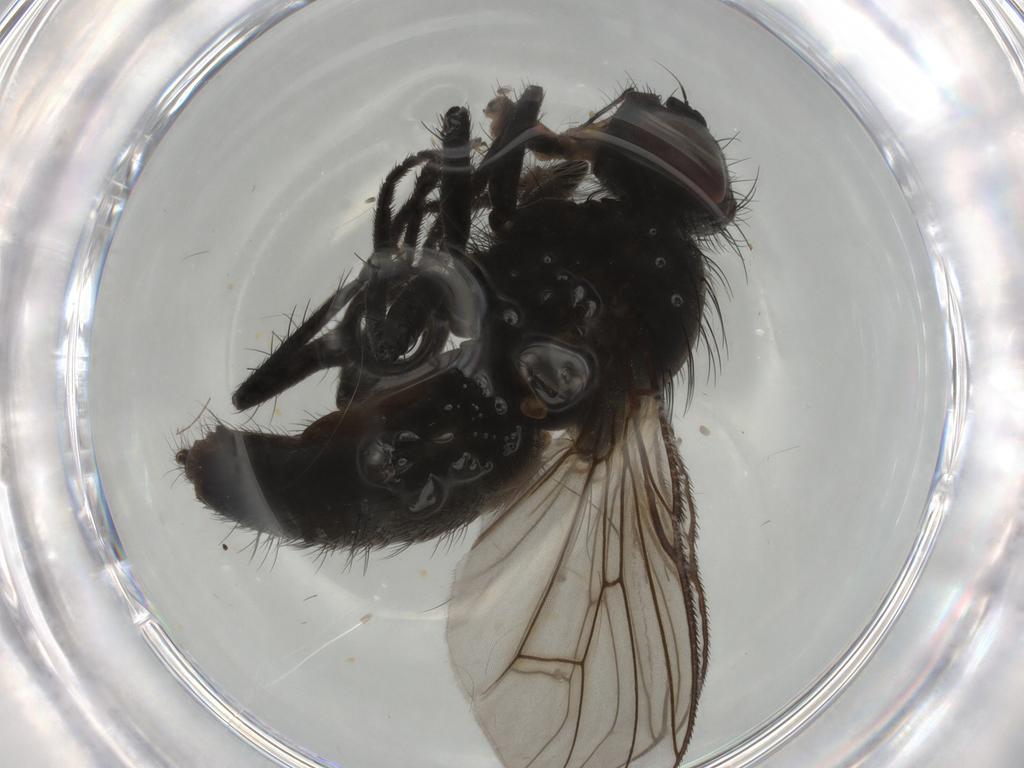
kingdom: Animalia
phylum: Arthropoda
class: Insecta
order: Diptera
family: Muscidae
